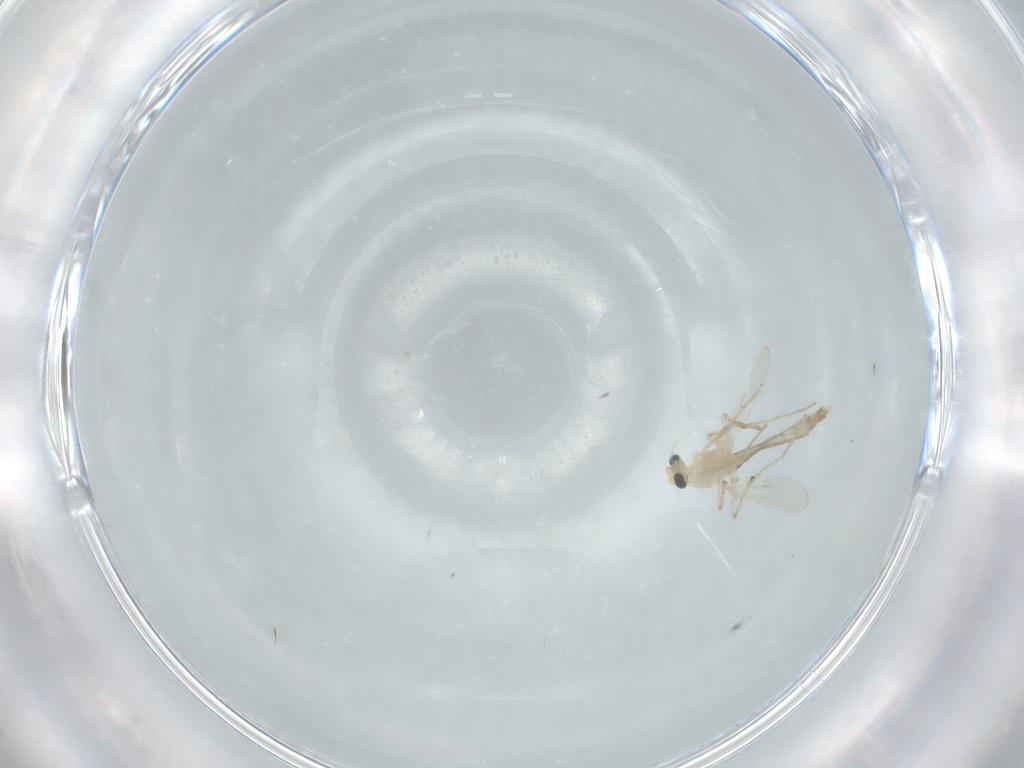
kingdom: Animalia
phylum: Arthropoda
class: Insecta
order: Diptera
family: Chironomidae
